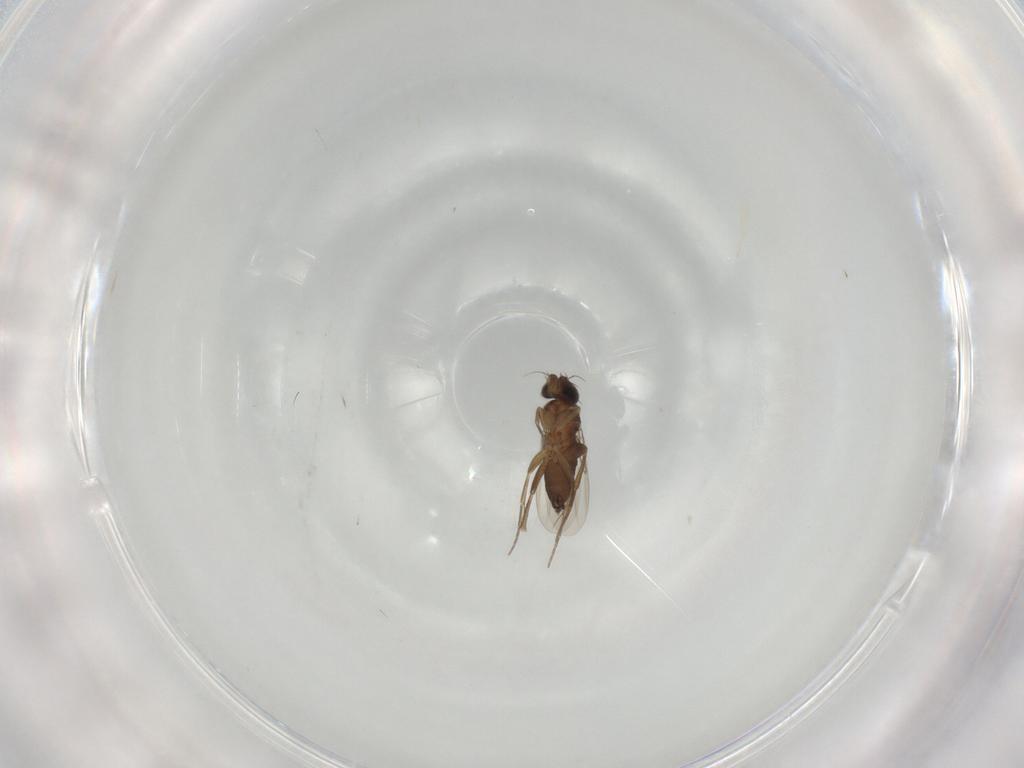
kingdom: Animalia
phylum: Arthropoda
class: Insecta
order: Diptera
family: Phoridae
